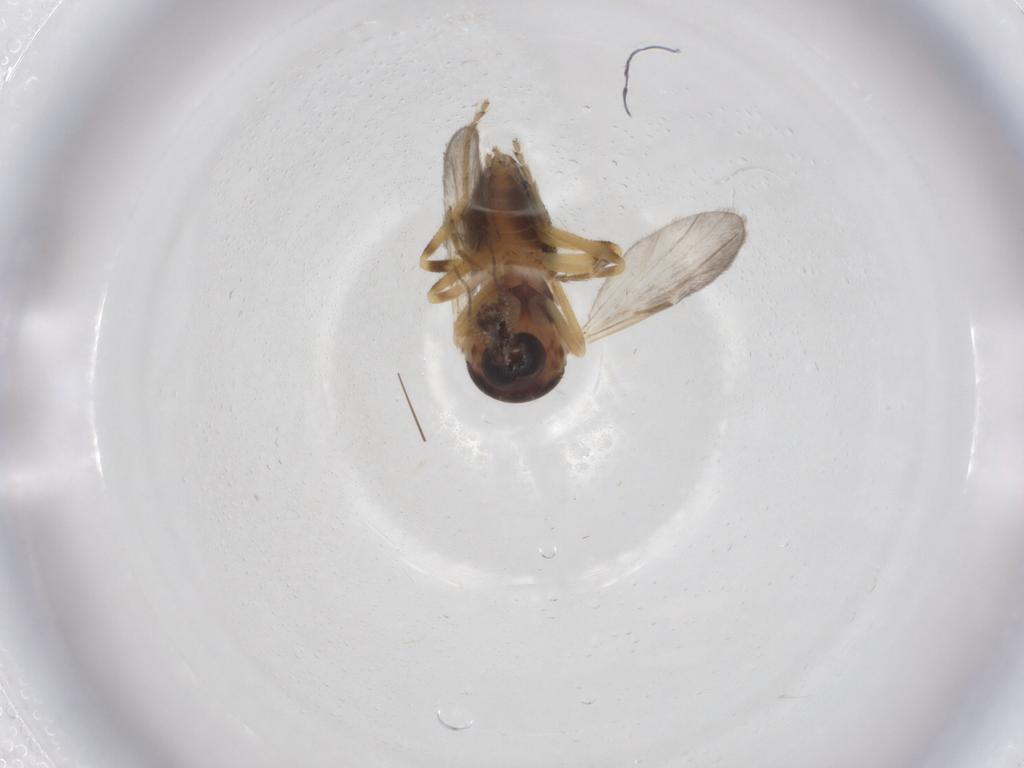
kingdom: Animalia
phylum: Arthropoda
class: Insecta
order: Diptera
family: Ceratopogonidae
